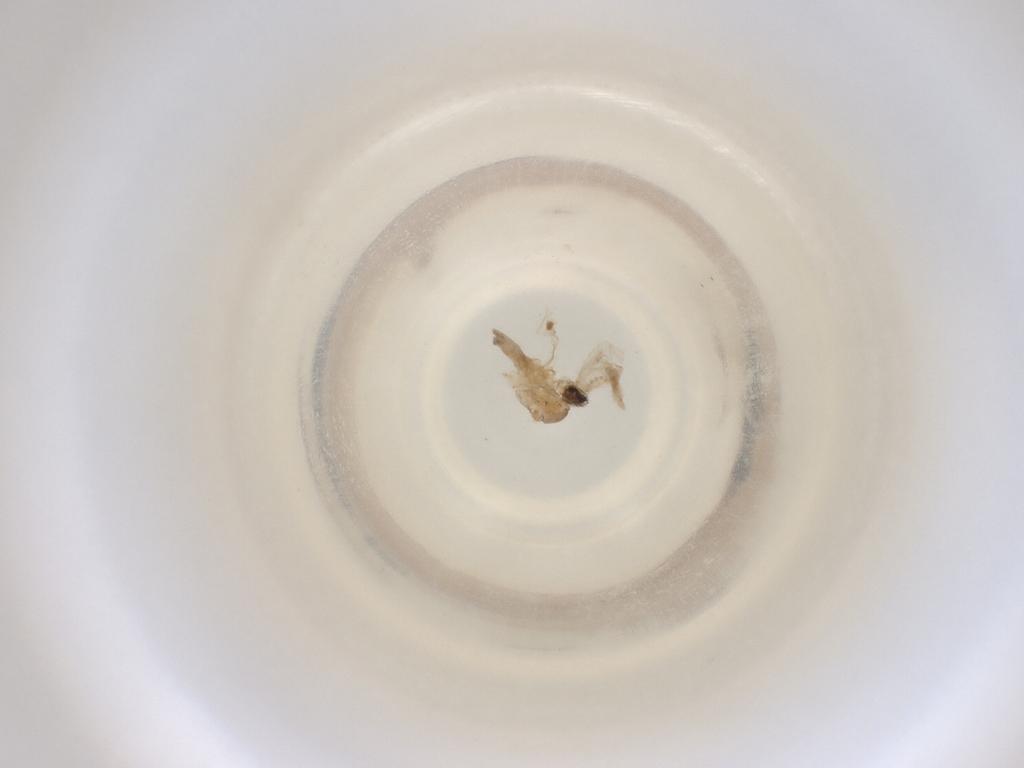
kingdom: Animalia
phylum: Arthropoda
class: Insecta
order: Diptera
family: Cecidomyiidae
